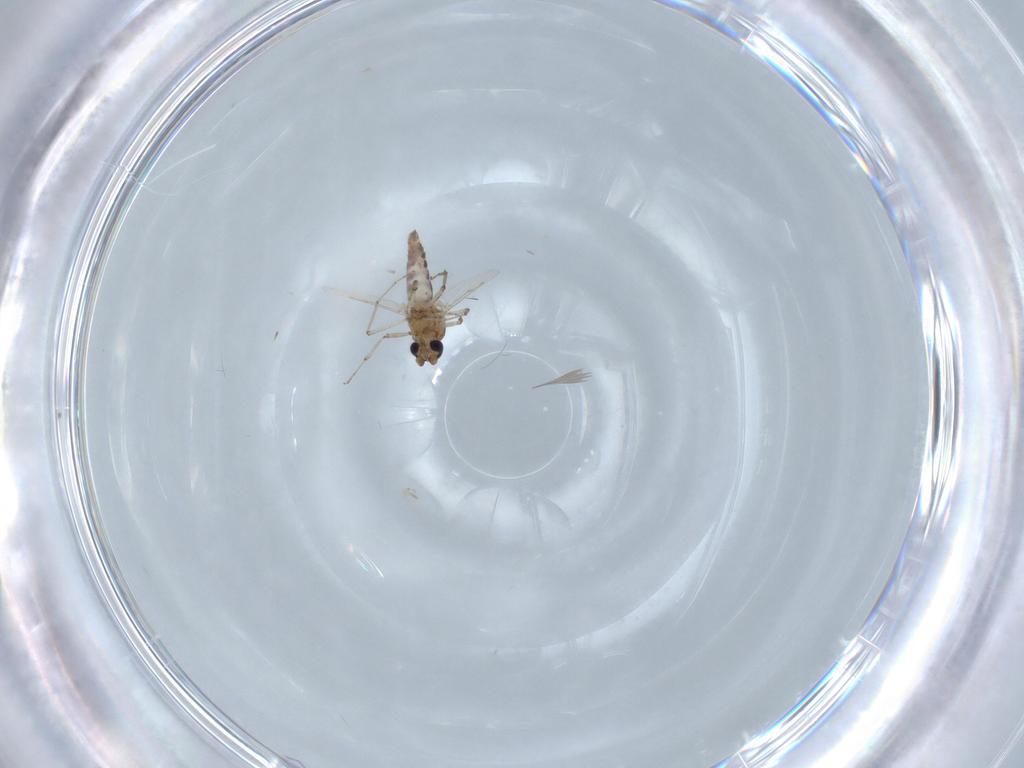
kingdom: Animalia
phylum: Arthropoda
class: Insecta
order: Diptera
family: Ceratopogonidae
